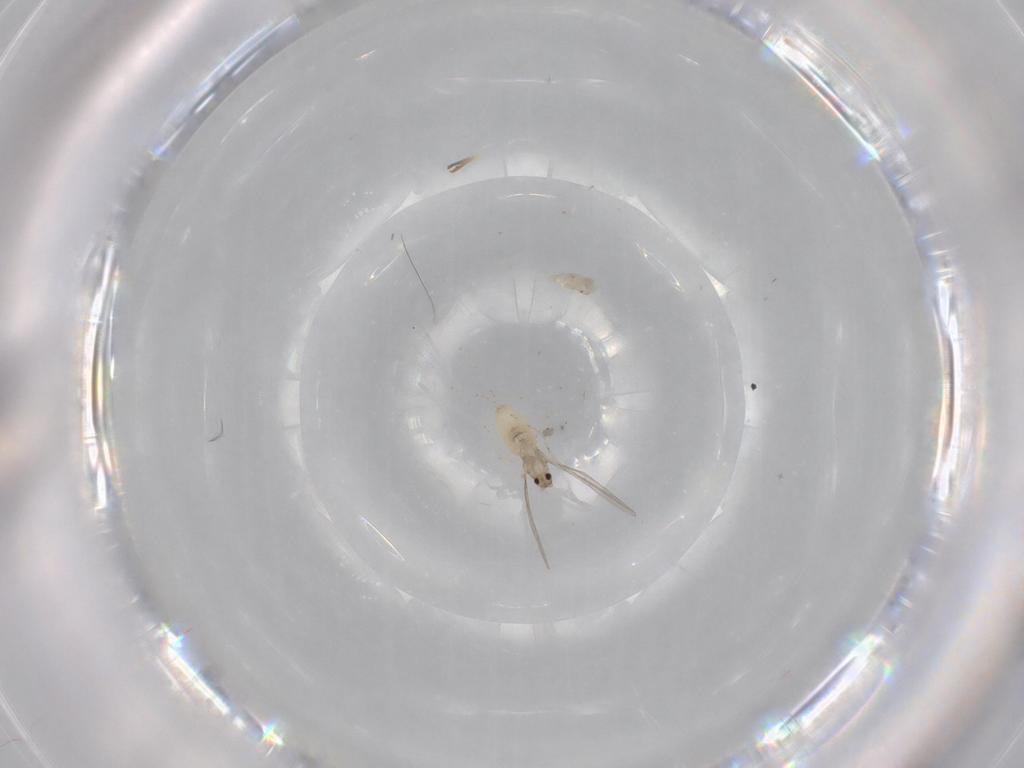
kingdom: Animalia
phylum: Arthropoda
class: Insecta
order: Diptera
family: Cecidomyiidae
